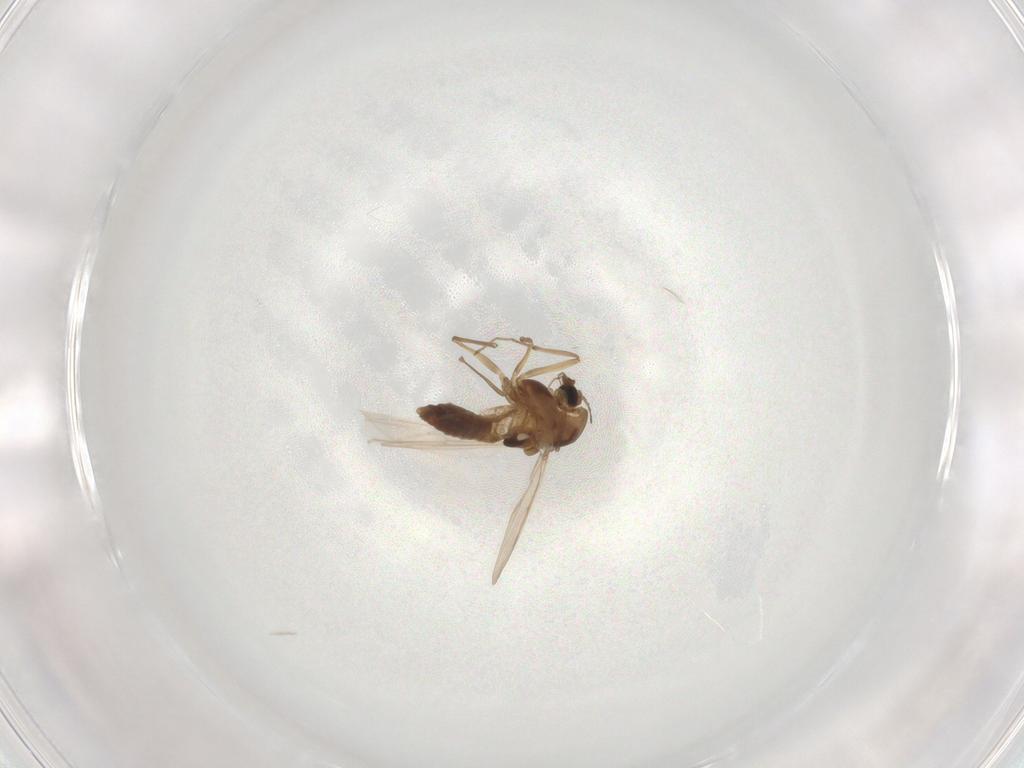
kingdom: Animalia
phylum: Arthropoda
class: Insecta
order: Diptera
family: Chironomidae
